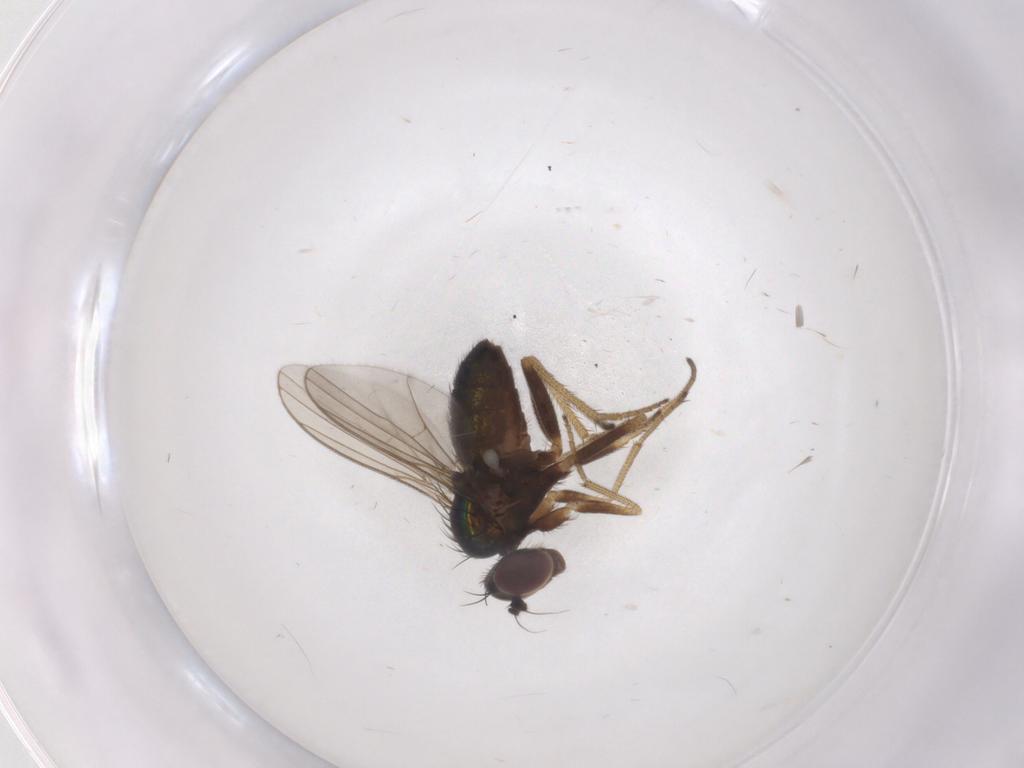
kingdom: Animalia
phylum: Arthropoda
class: Insecta
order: Diptera
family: Sciaridae
